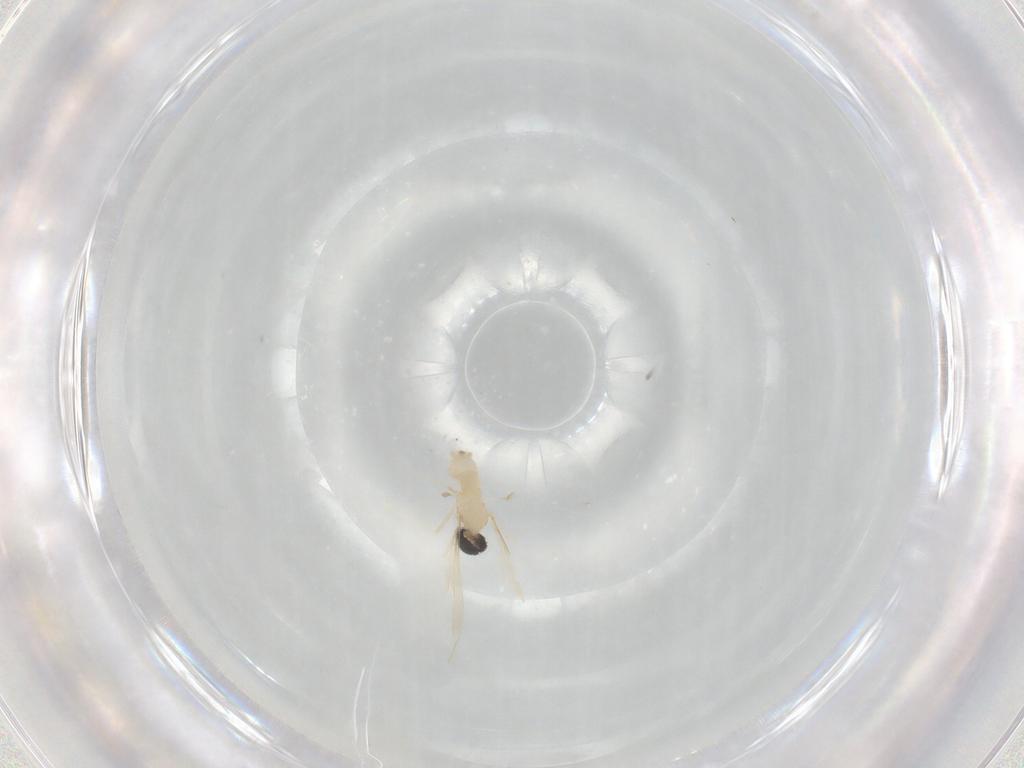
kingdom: Animalia
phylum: Arthropoda
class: Insecta
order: Diptera
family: Cecidomyiidae
